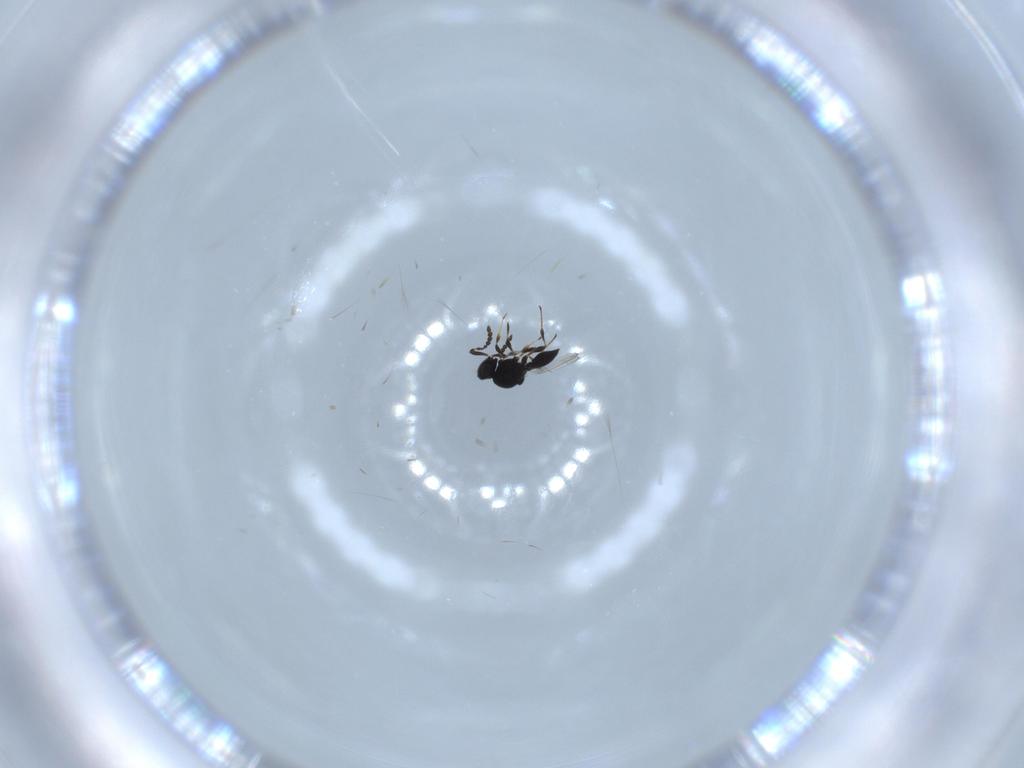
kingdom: Animalia
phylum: Arthropoda
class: Insecta
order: Hymenoptera
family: Platygastridae
